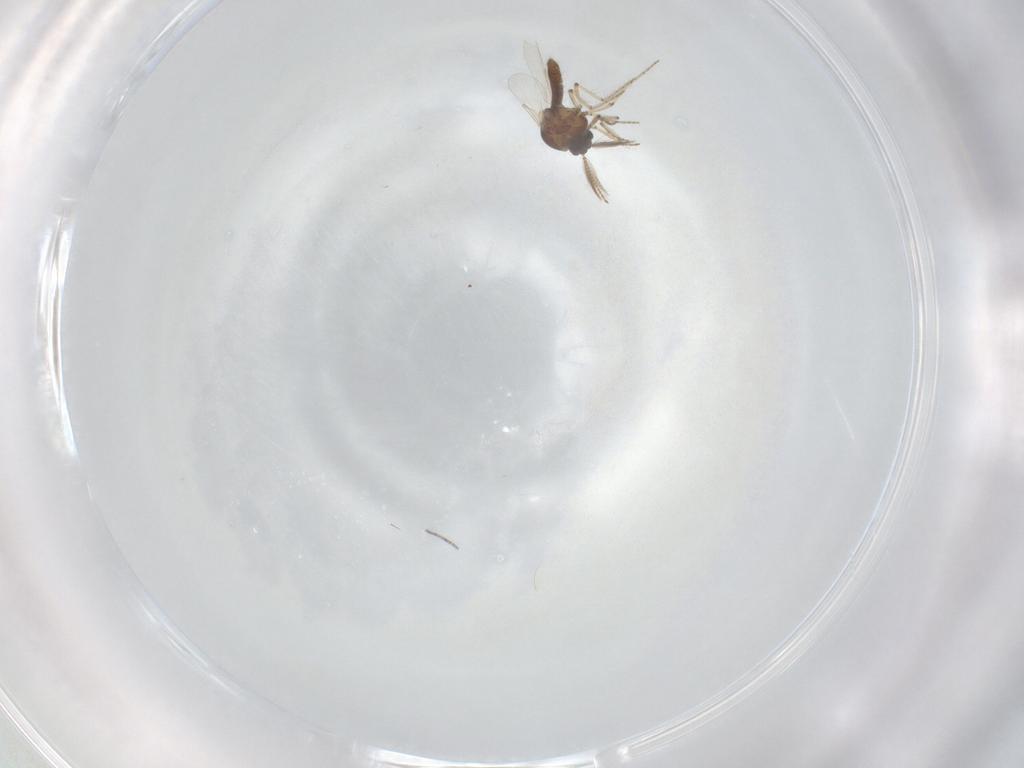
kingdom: Animalia
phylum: Arthropoda
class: Insecta
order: Diptera
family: Ceratopogonidae
